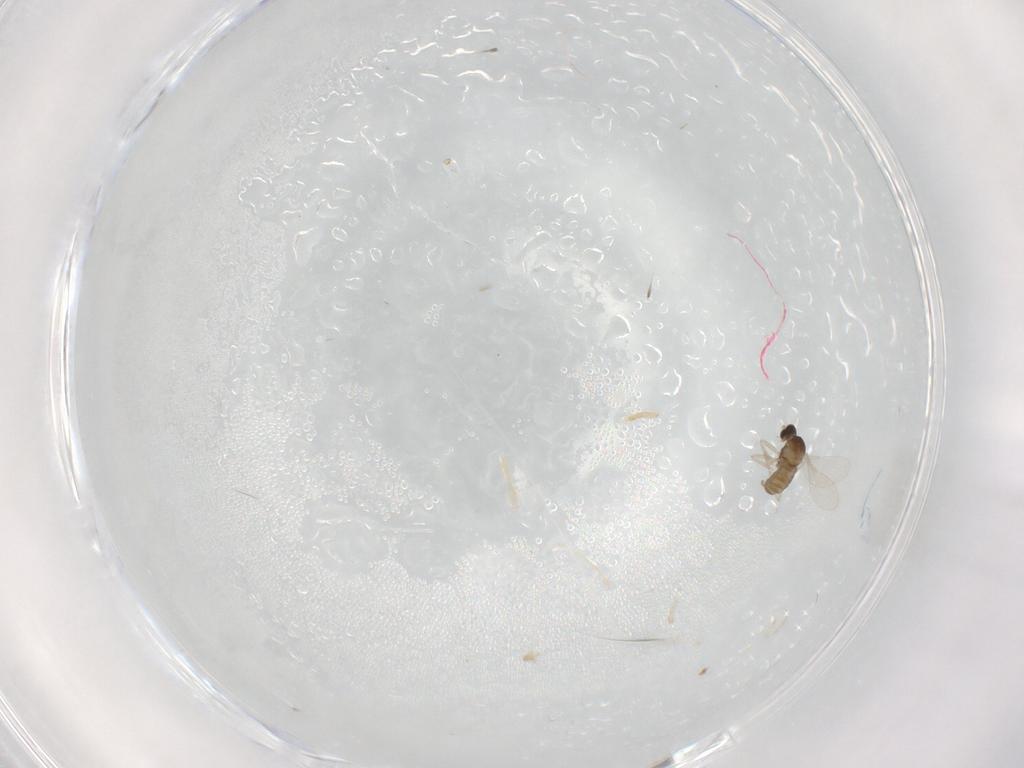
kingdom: Animalia
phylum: Arthropoda
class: Insecta
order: Diptera
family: Cecidomyiidae
